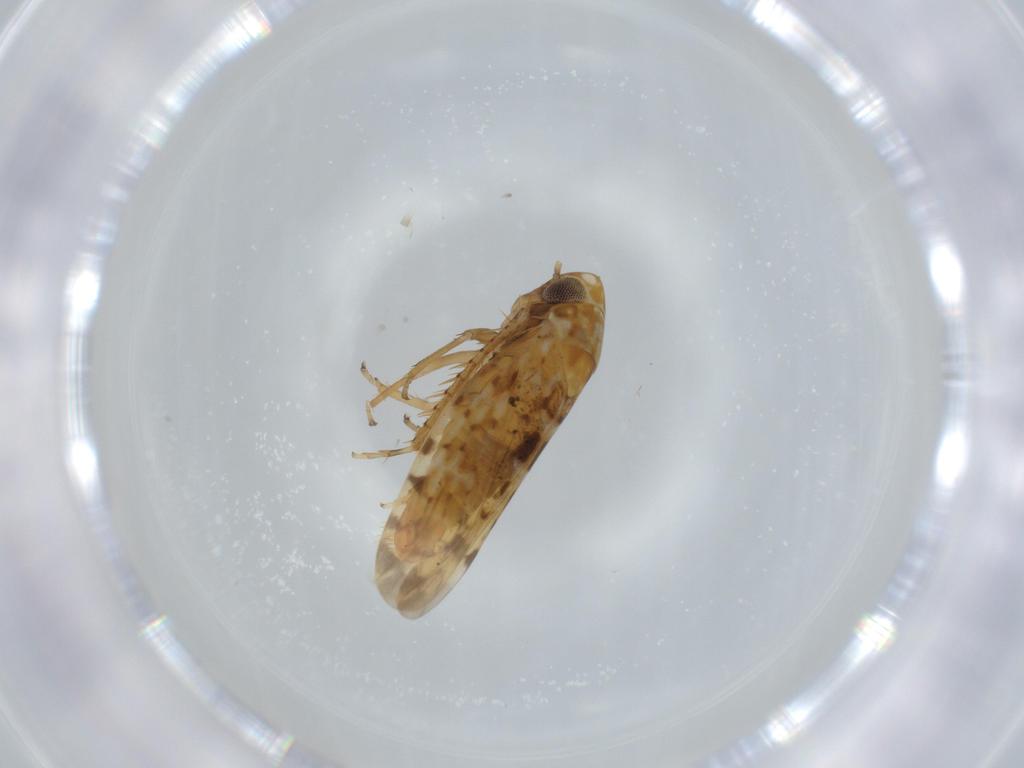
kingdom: Animalia
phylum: Arthropoda
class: Insecta
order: Hemiptera
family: Cicadellidae
